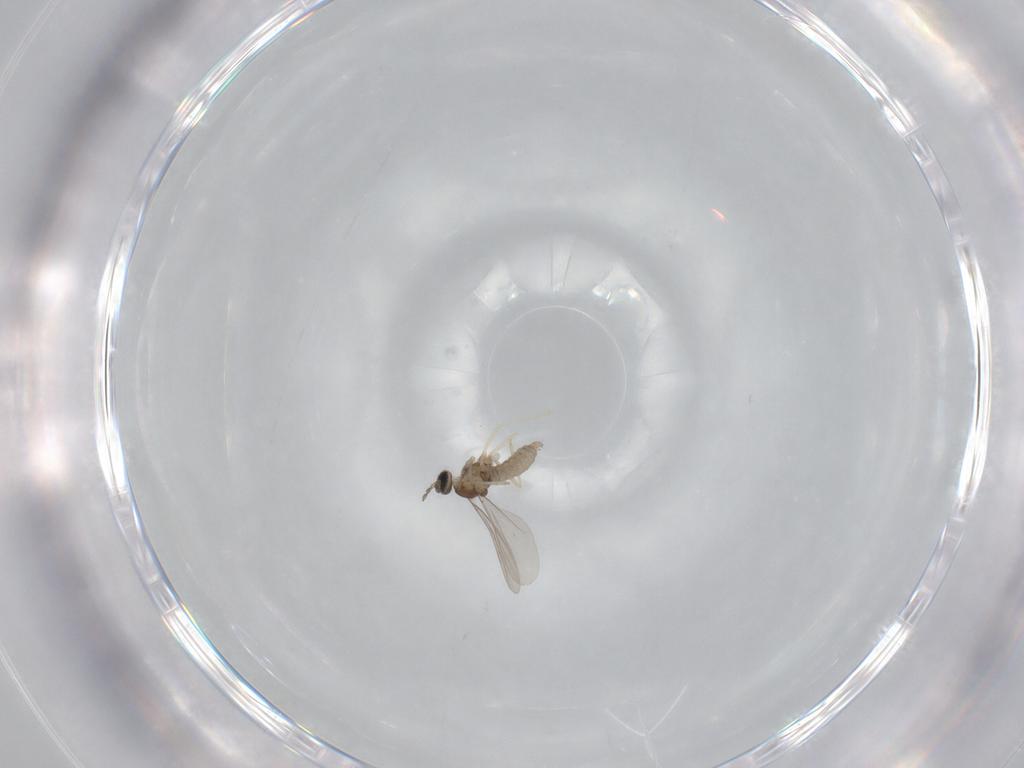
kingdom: Animalia
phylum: Arthropoda
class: Insecta
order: Diptera
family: Cecidomyiidae
